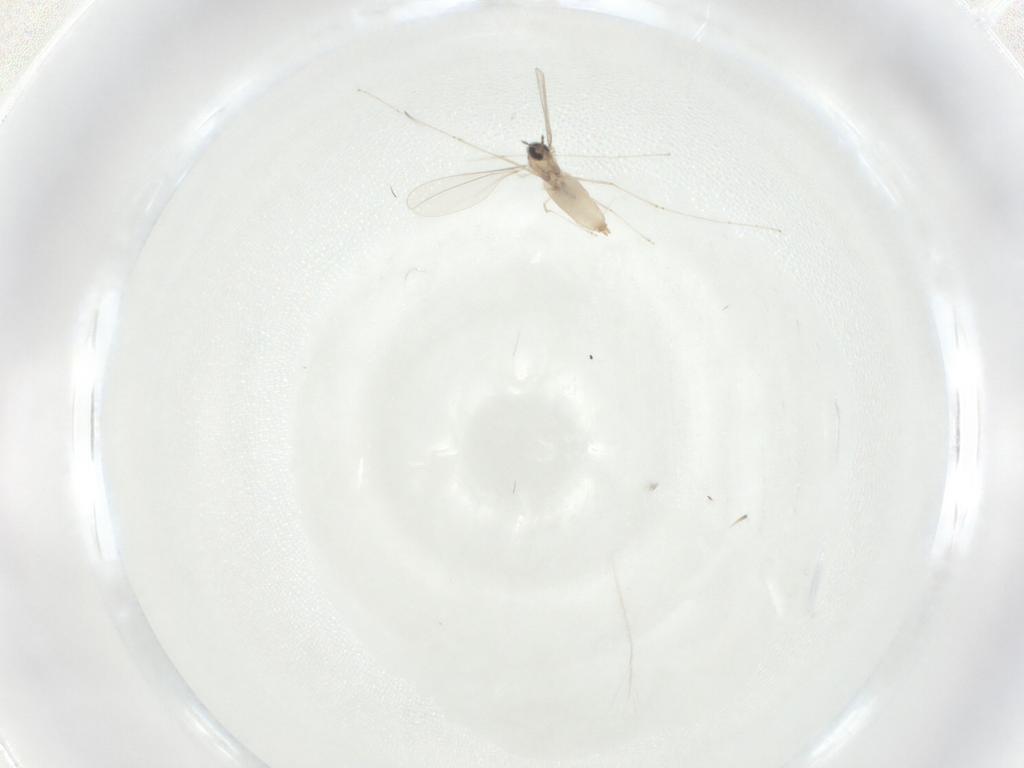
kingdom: Animalia
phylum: Arthropoda
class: Insecta
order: Diptera
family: Cecidomyiidae
